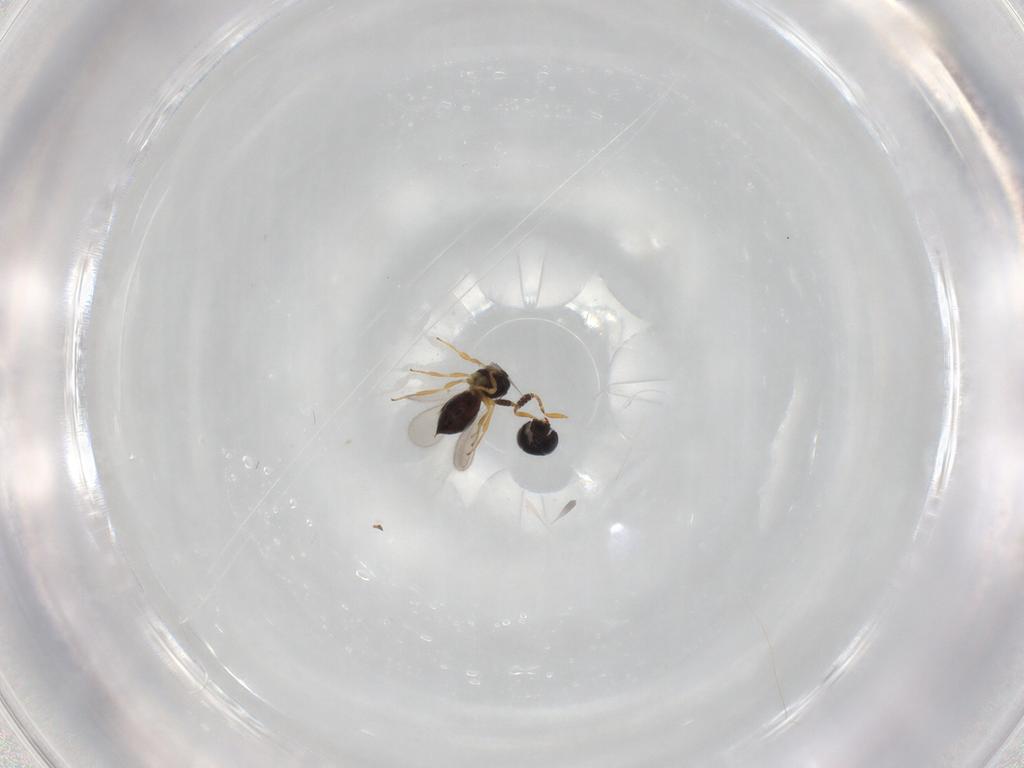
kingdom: Animalia
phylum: Arthropoda
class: Insecta
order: Hymenoptera
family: Scelionidae
